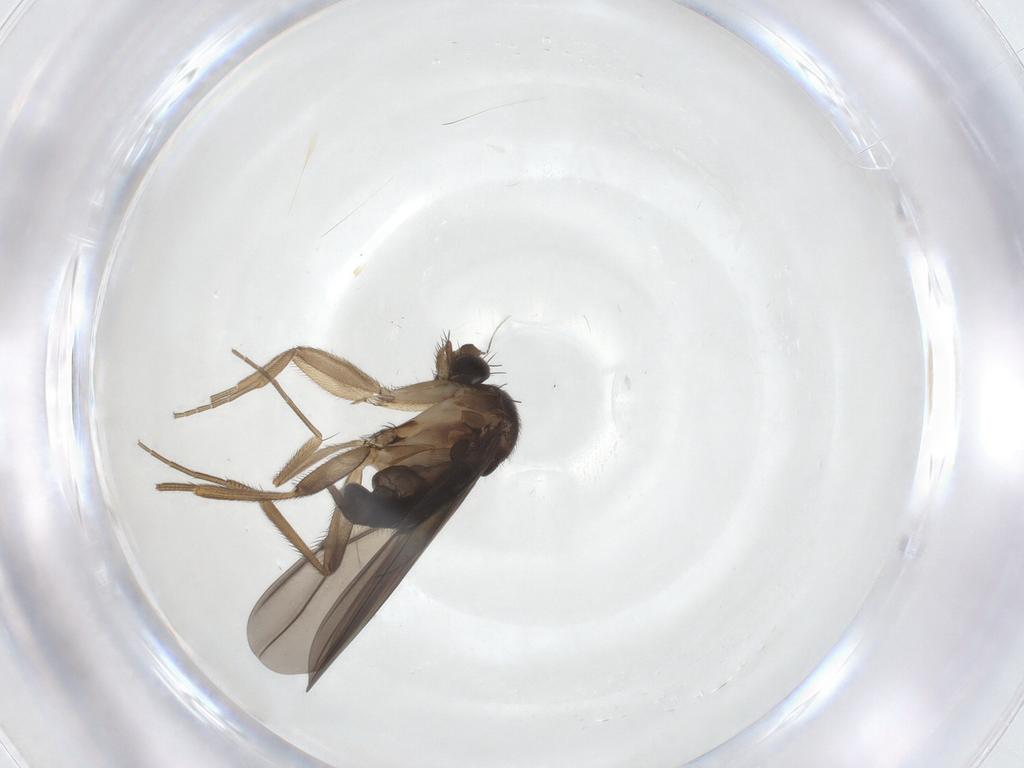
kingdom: Animalia
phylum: Arthropoda
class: Insecta
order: Diptera
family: Phoridae
